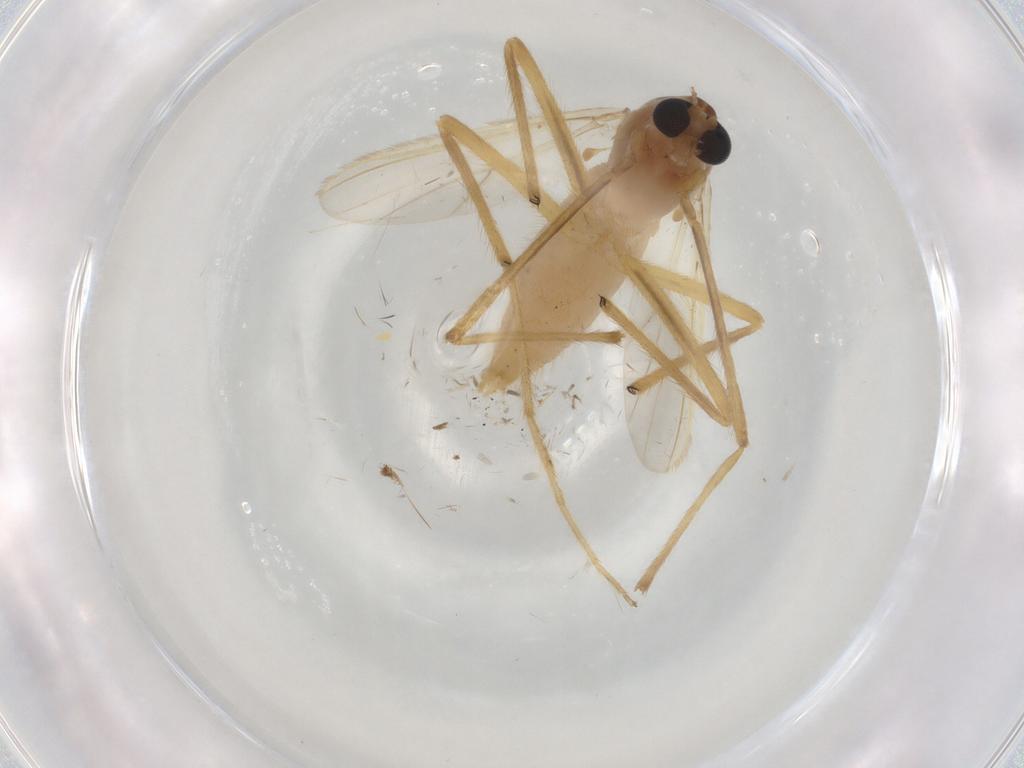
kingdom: Animalia
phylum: Arthropoda
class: Insecta
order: Diptera
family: Chironomidae
